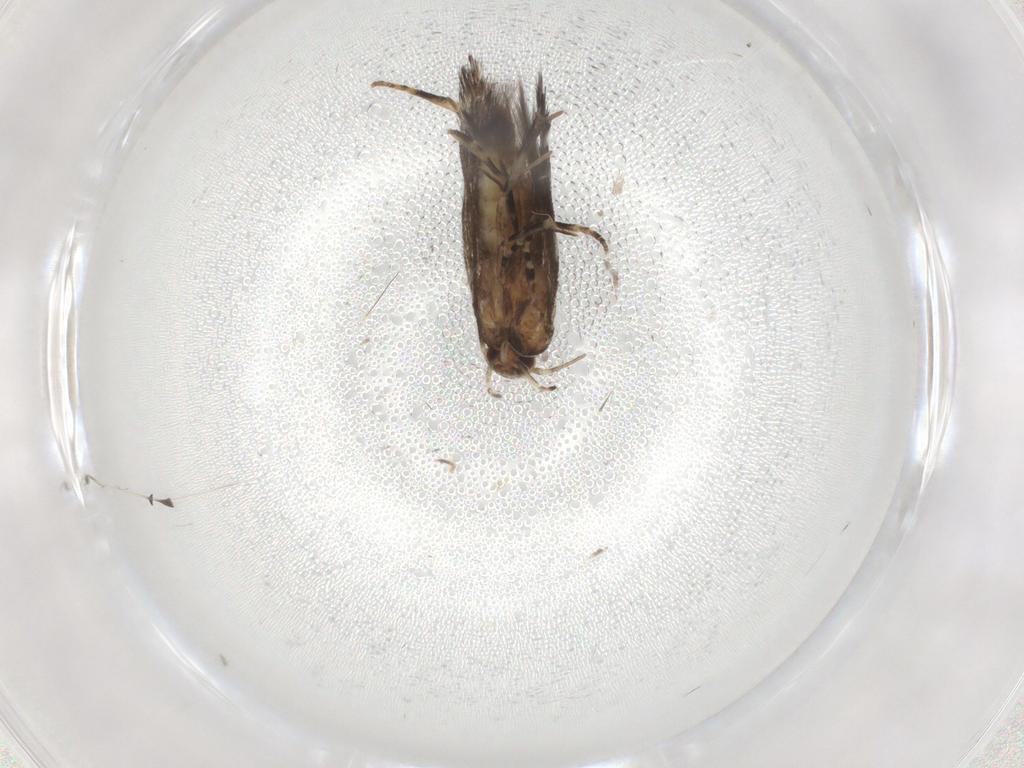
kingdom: Animalia
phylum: Arthropoda
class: Insecta
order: Lepidoptera
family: Elachistidae
